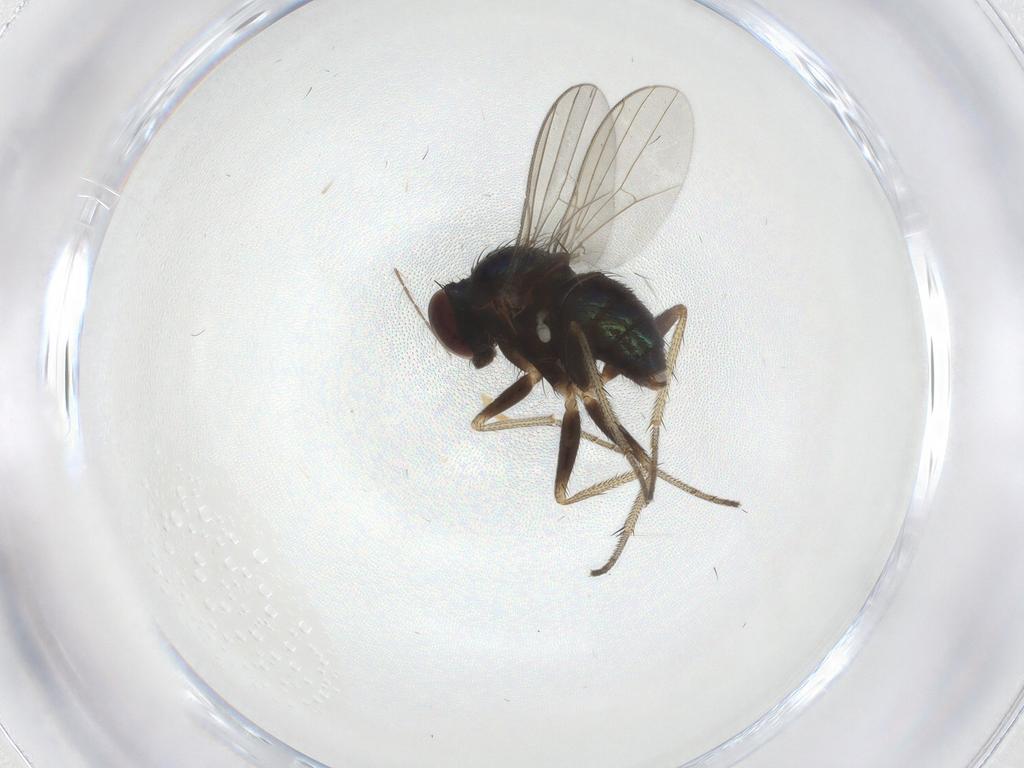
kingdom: Animalia
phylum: Arthropoda
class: Insecta
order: Diptera
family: Dolichopodidae
